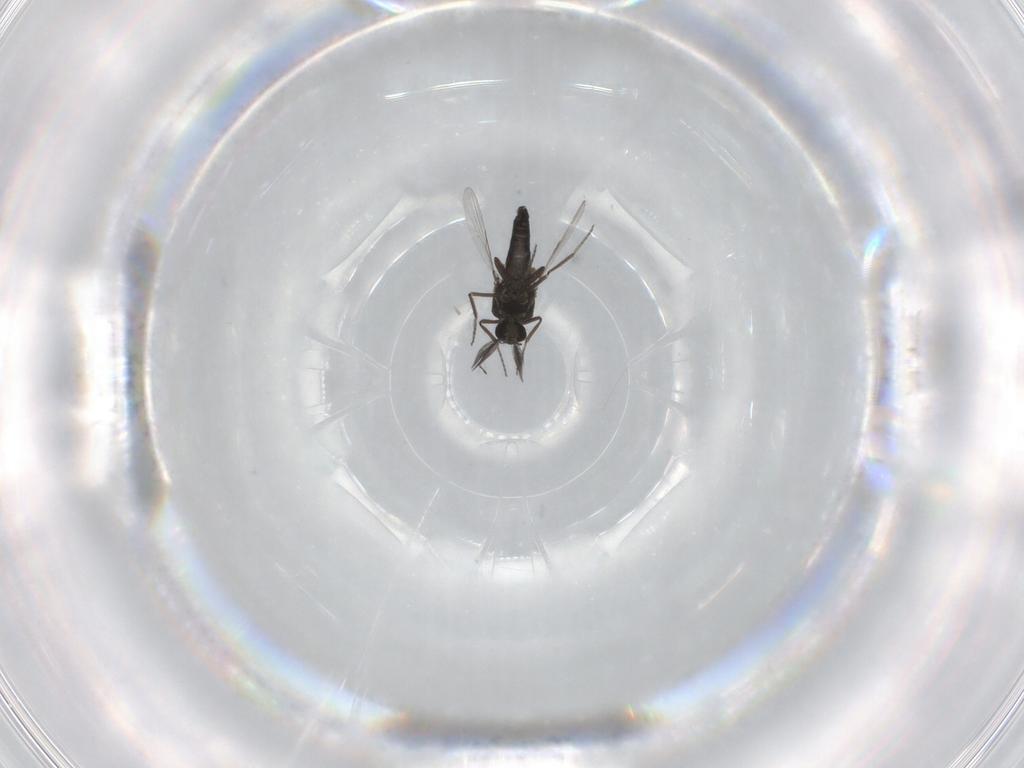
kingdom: Animalia
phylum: Arthropoda
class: Insecta
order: Diptera
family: Ceratopogonidae
